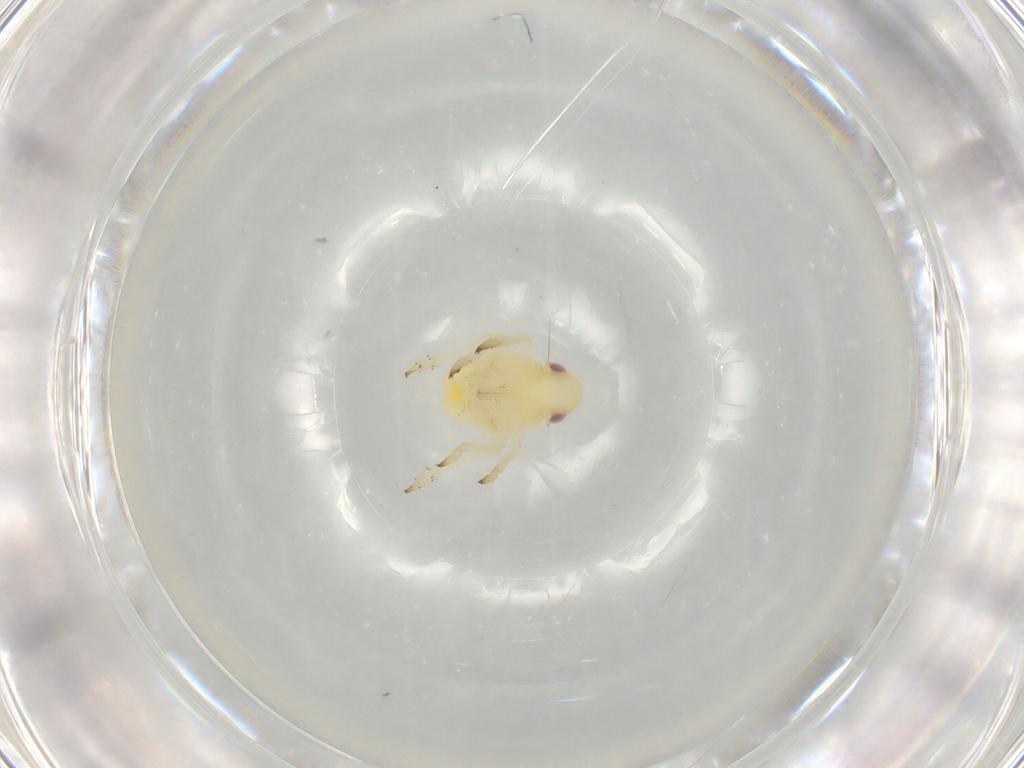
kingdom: Animalia
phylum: Arthropoda
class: Insecta
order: Hemiptera
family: Caliscelidae
